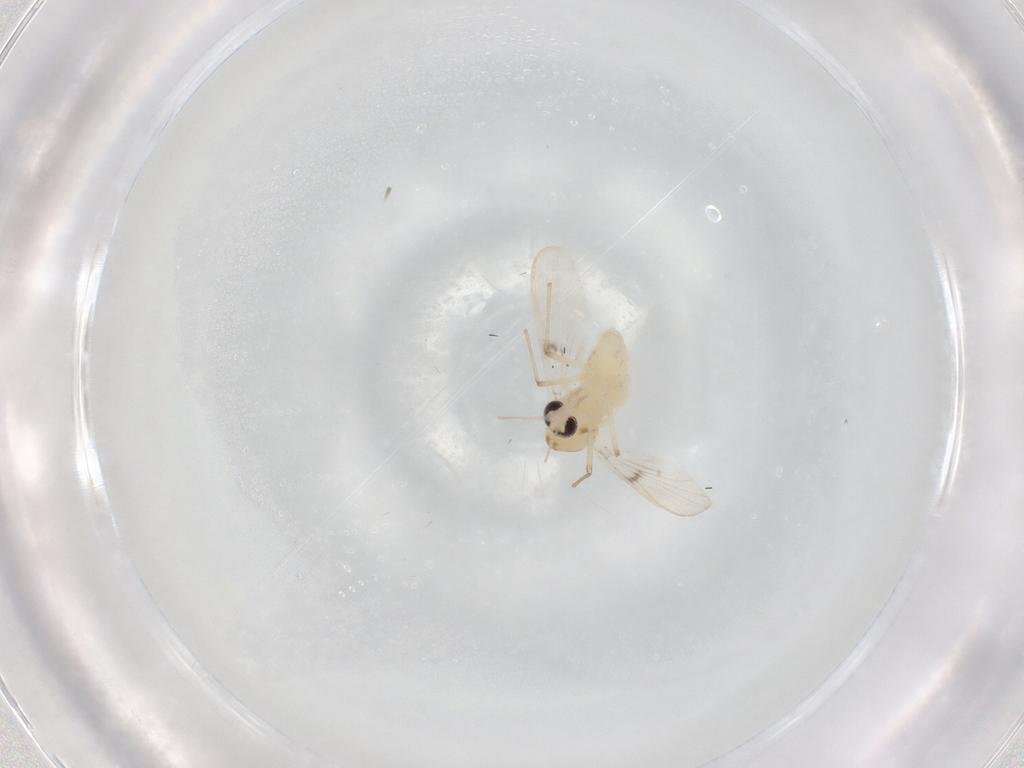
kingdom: Animalia
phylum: Arthropoda
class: Insecta
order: Diptera
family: Chironomidae
